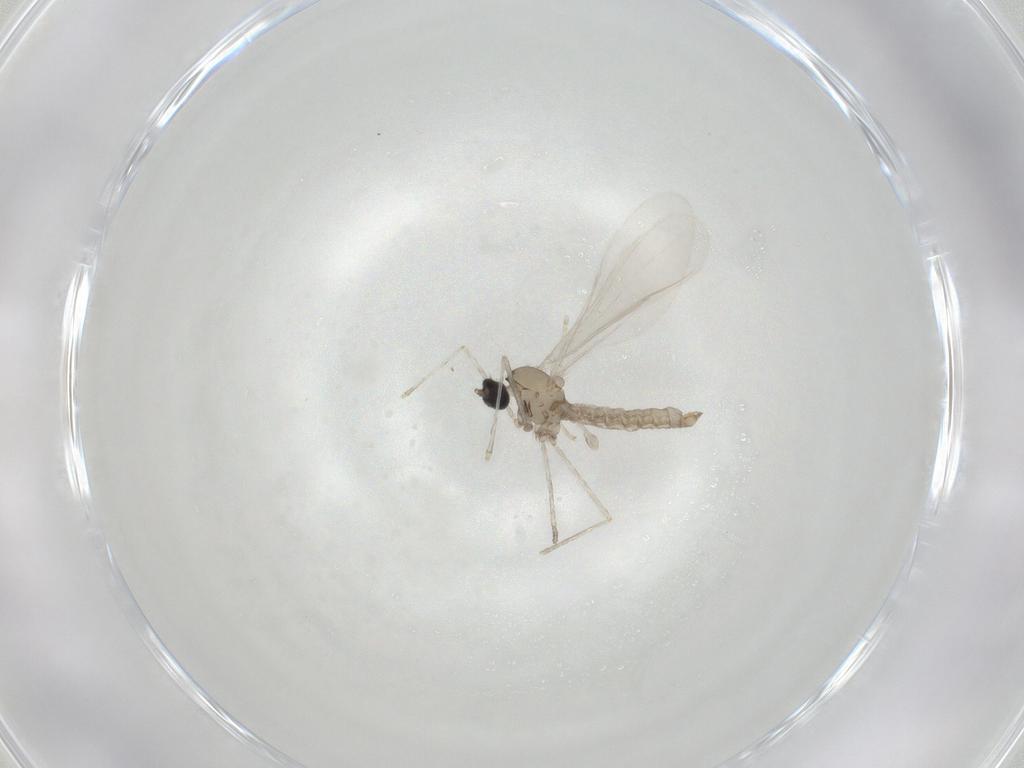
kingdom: Animalia
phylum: Arthropoda
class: Insecta
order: Diptera
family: Cecidomyiidae
